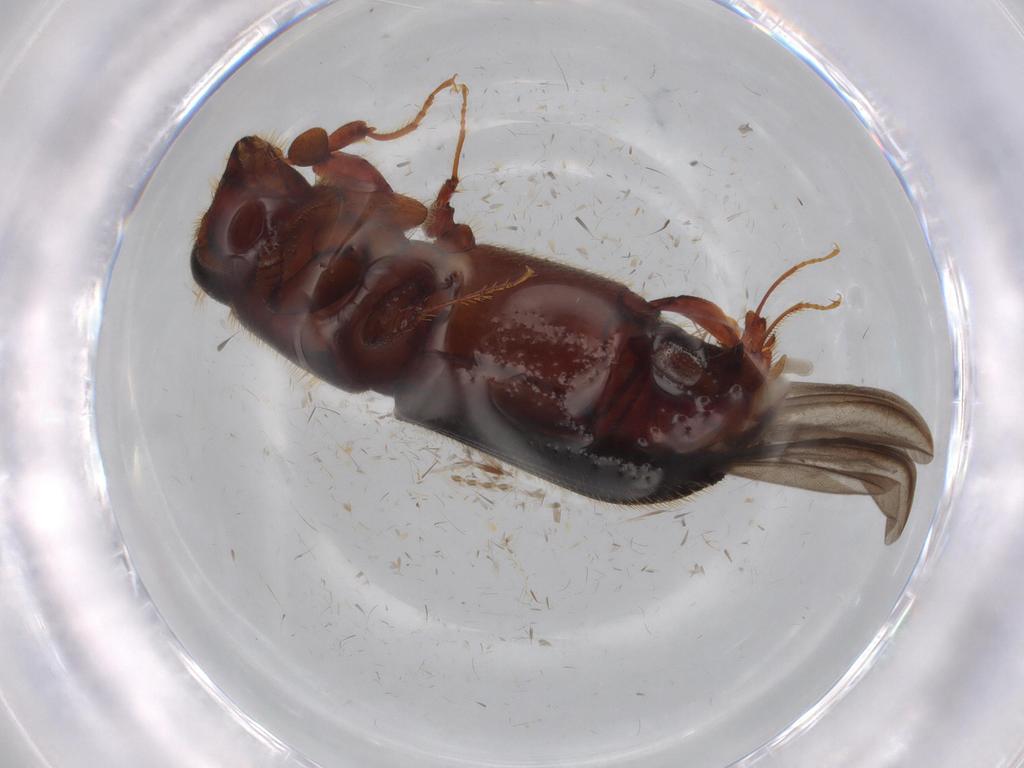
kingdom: Animalia
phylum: Arthropoda
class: Insecta
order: Coleoptera
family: Curculionidae
